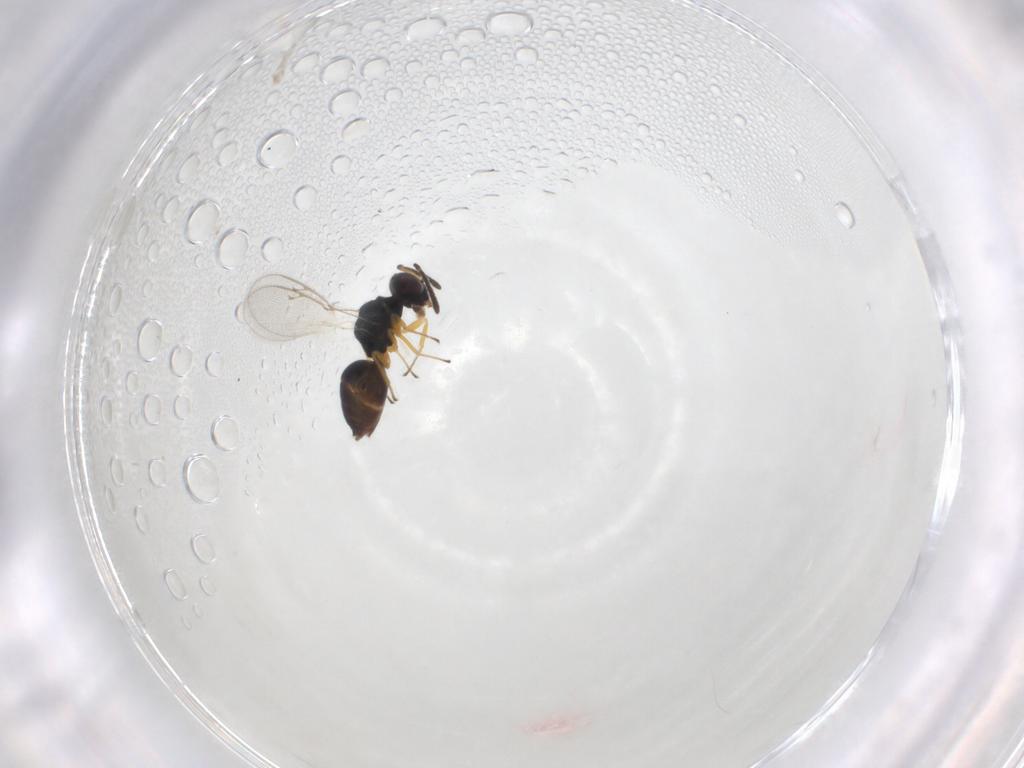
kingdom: Animalia
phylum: Arthropoda
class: Insecta
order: Hymenoptera
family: Pteromalidae
